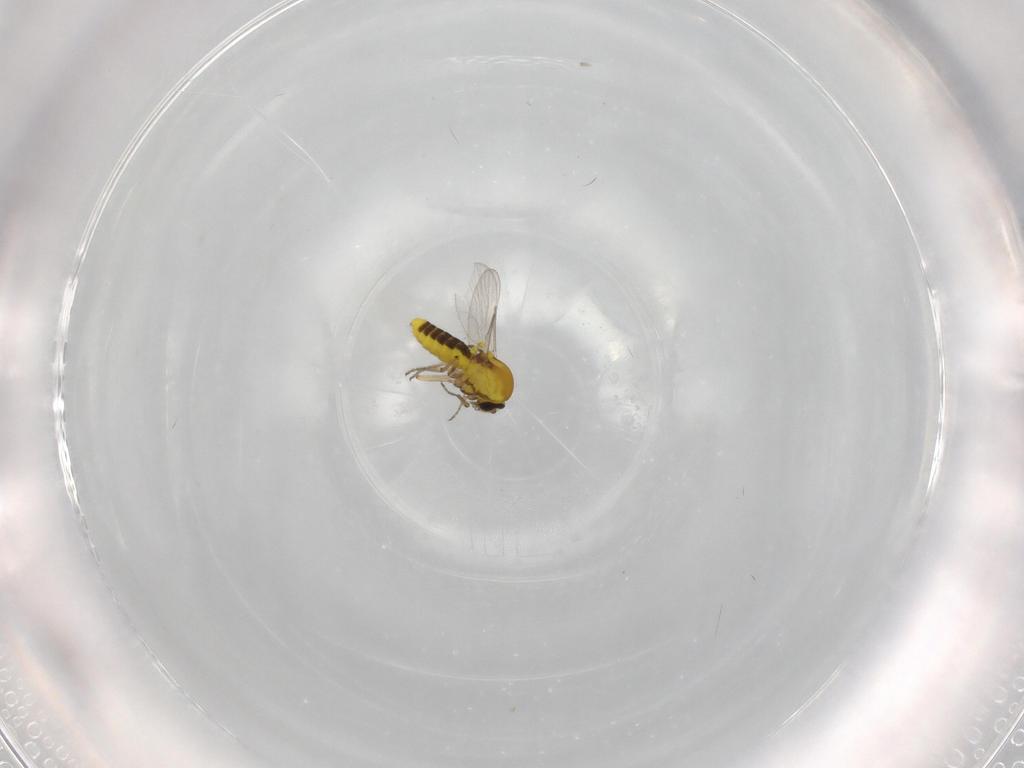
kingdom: Animalia
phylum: Arthropoda
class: Insecta
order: Diptera
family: Ceratopogonidae
